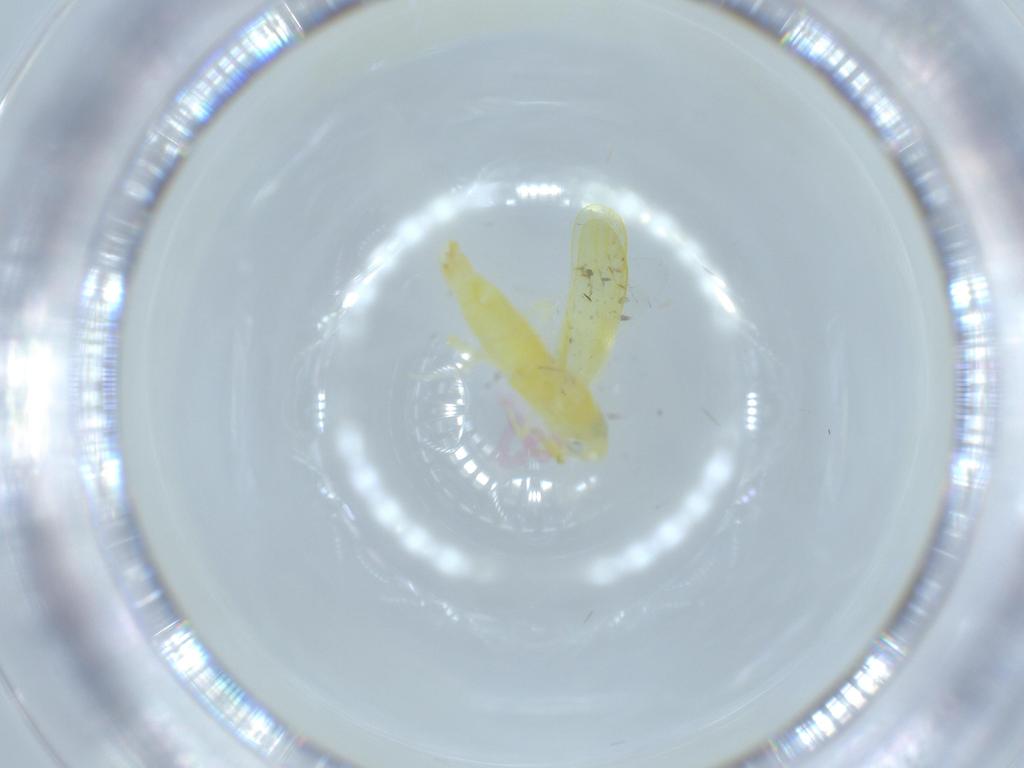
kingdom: Animalia
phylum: Arthropoda
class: Insecta
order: Hemiptera
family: Cicadellidae
